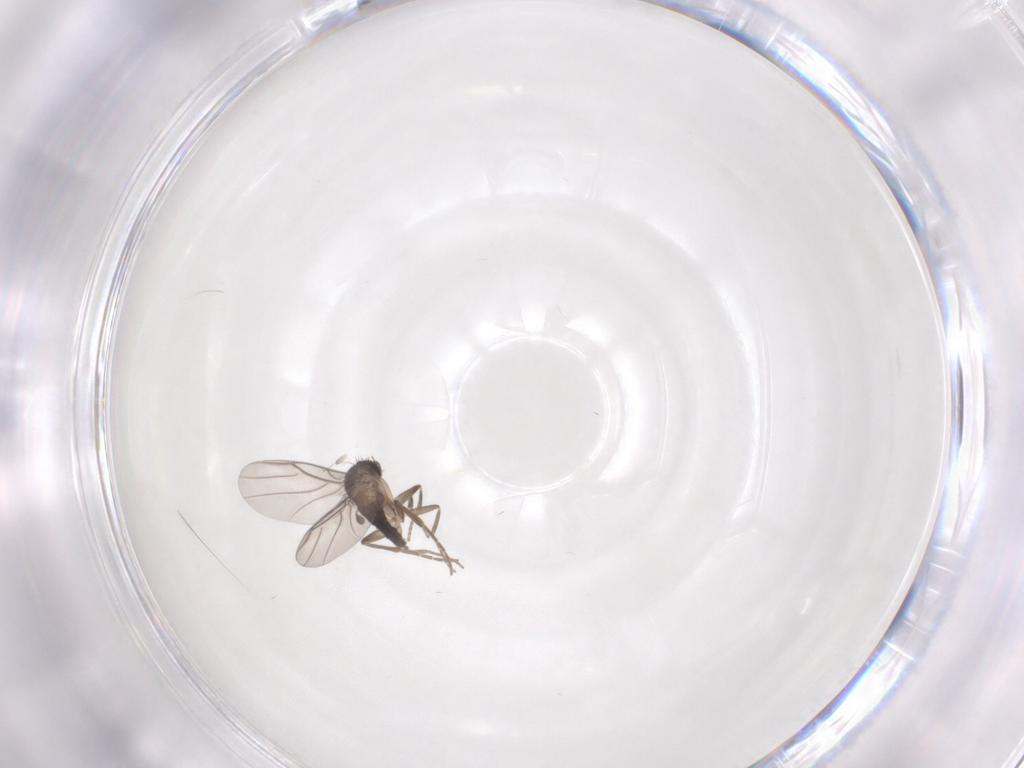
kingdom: Animalia
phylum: Arthropoda
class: Insecta
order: Diptera
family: Phoridae
